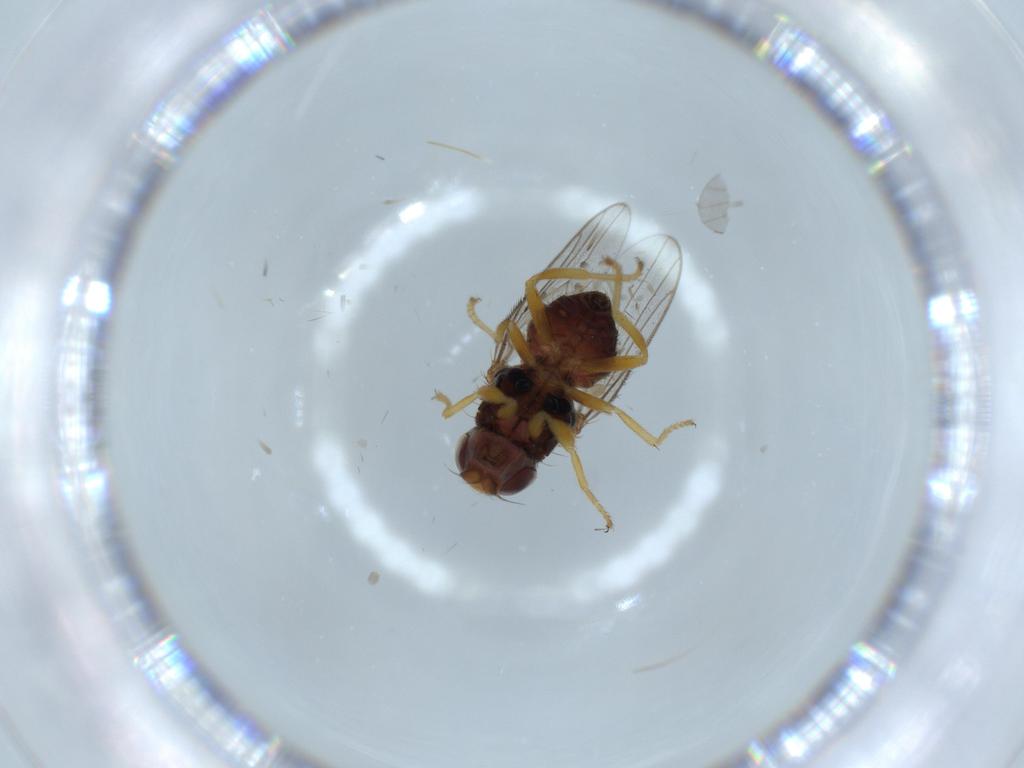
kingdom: Animalia
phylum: Arthropoda
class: Insecta
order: Diptera
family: Chloropidae
